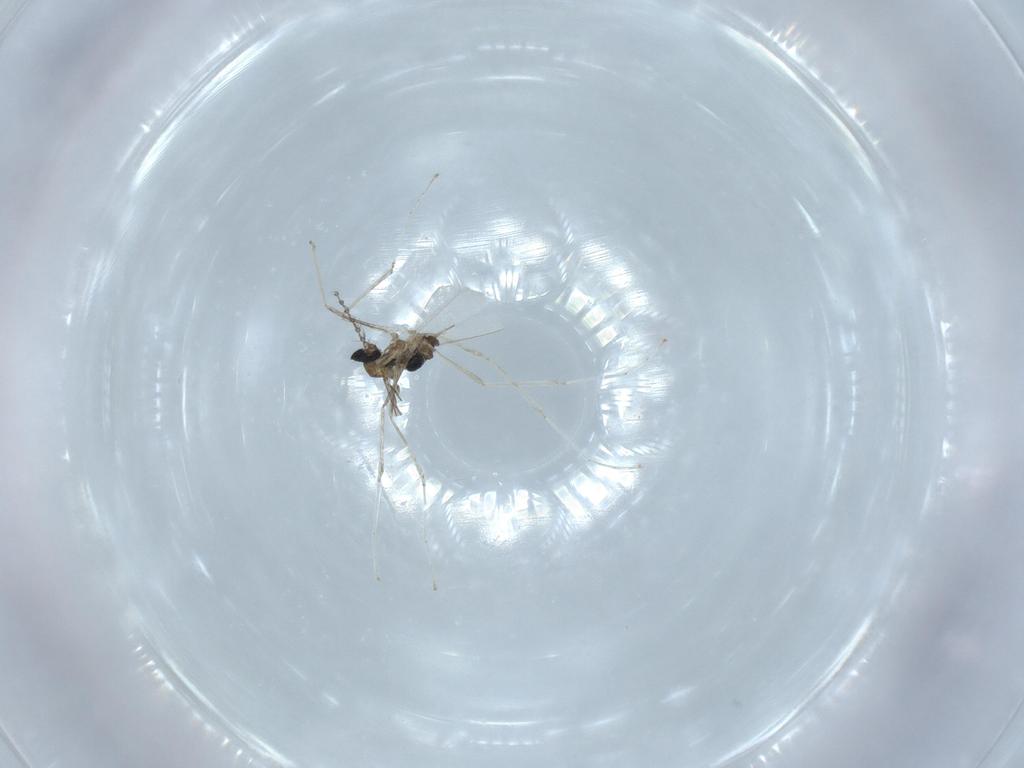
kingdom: Animalia
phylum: Arthropoda
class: Insecta
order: Diptera
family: Cecidomyiidae
